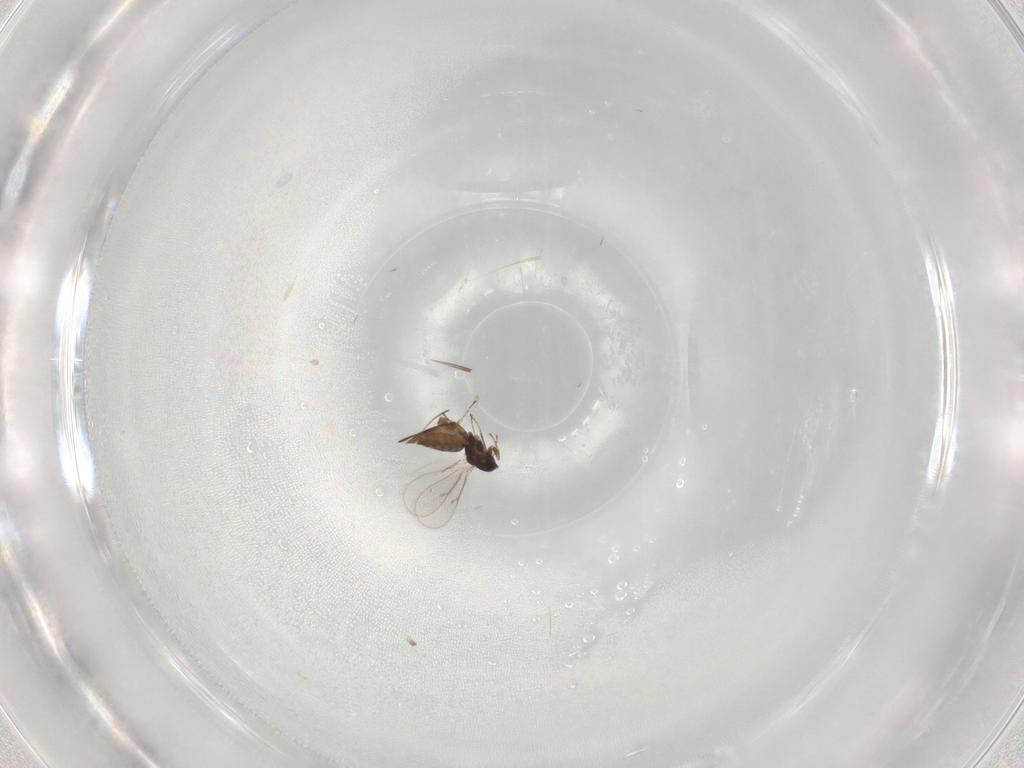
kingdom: Animalia
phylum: Arthropoda
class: Insecta
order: Hymenoptera
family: Eulophidae
